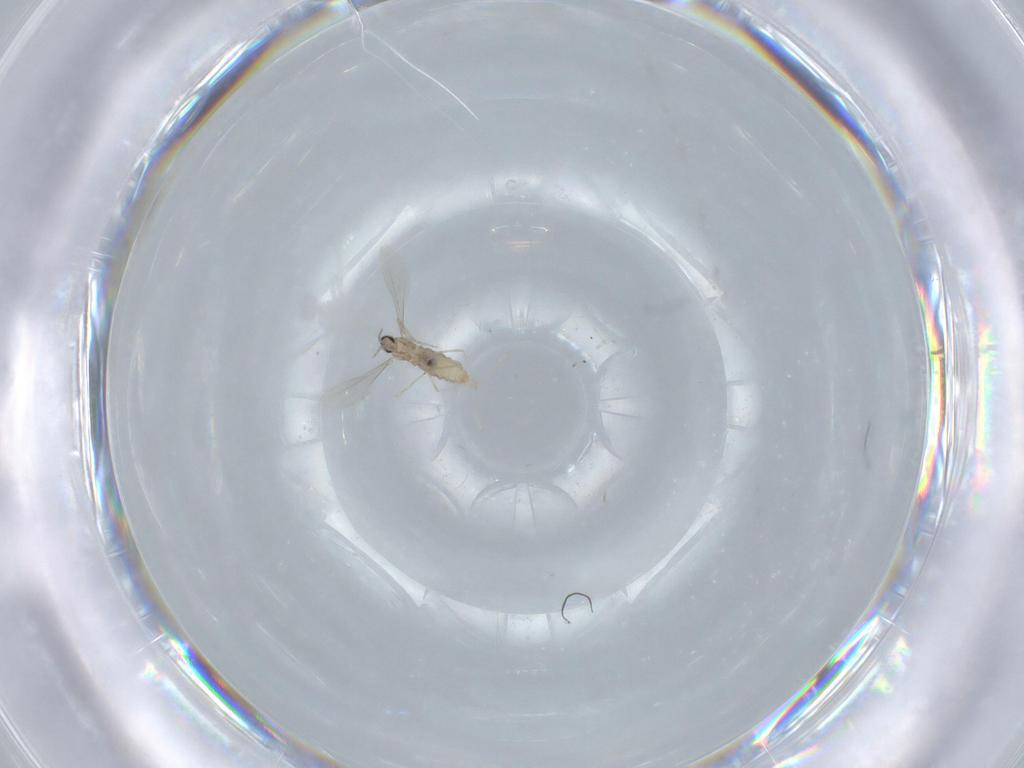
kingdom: Animalia
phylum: Arthropoda
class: Insecta
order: Diptera
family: Cecidomyiidae
